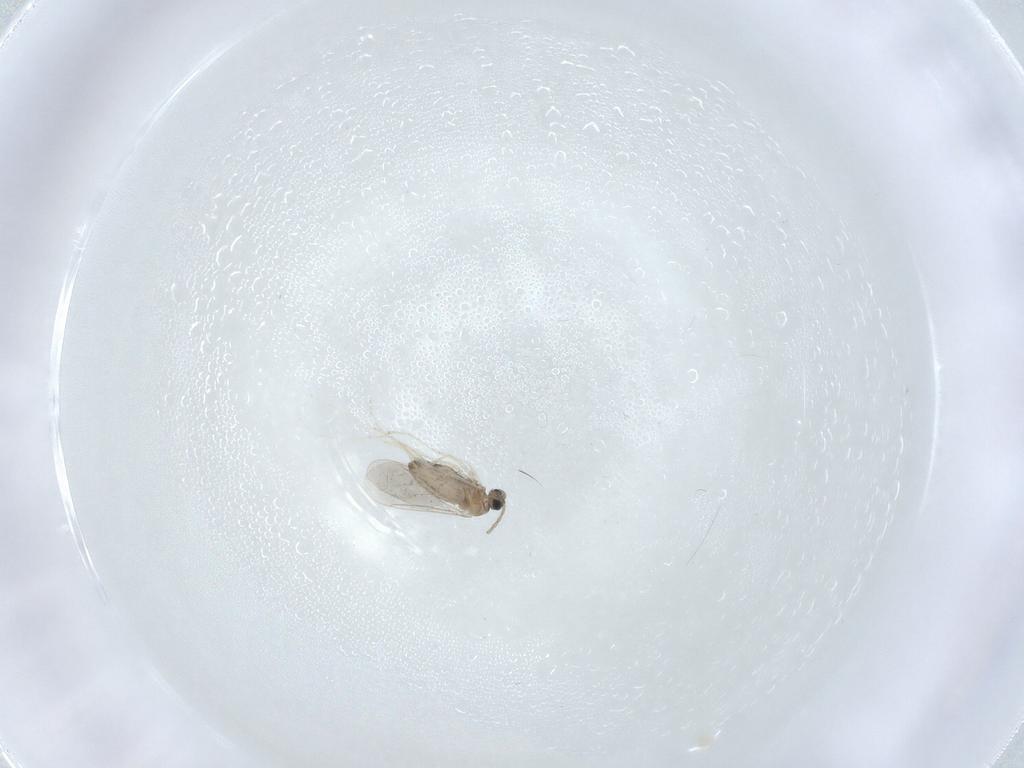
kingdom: Animalia
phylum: Arthropoda
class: Insecta
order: Diptera
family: Cecidomyiidae
